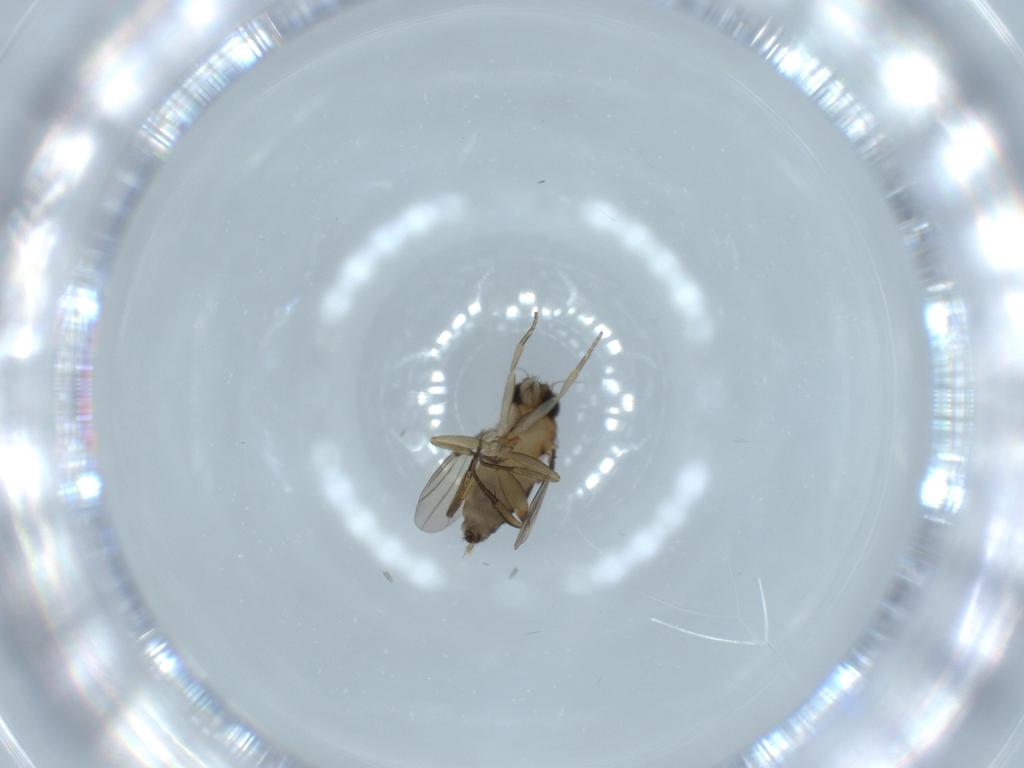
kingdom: Animalia
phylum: Arthropoda
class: Insecta
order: Diptera
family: Phoridae
